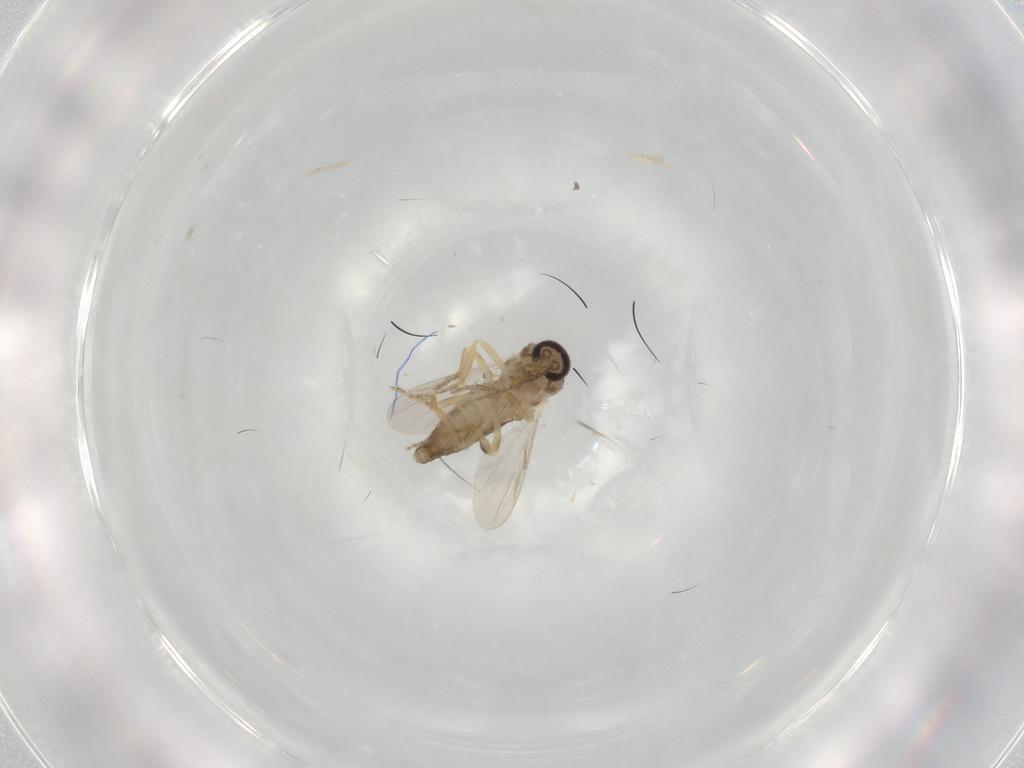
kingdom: Animalia
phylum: Arthropoda
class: Insecta
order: Diptera
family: Ceratopogonidae
